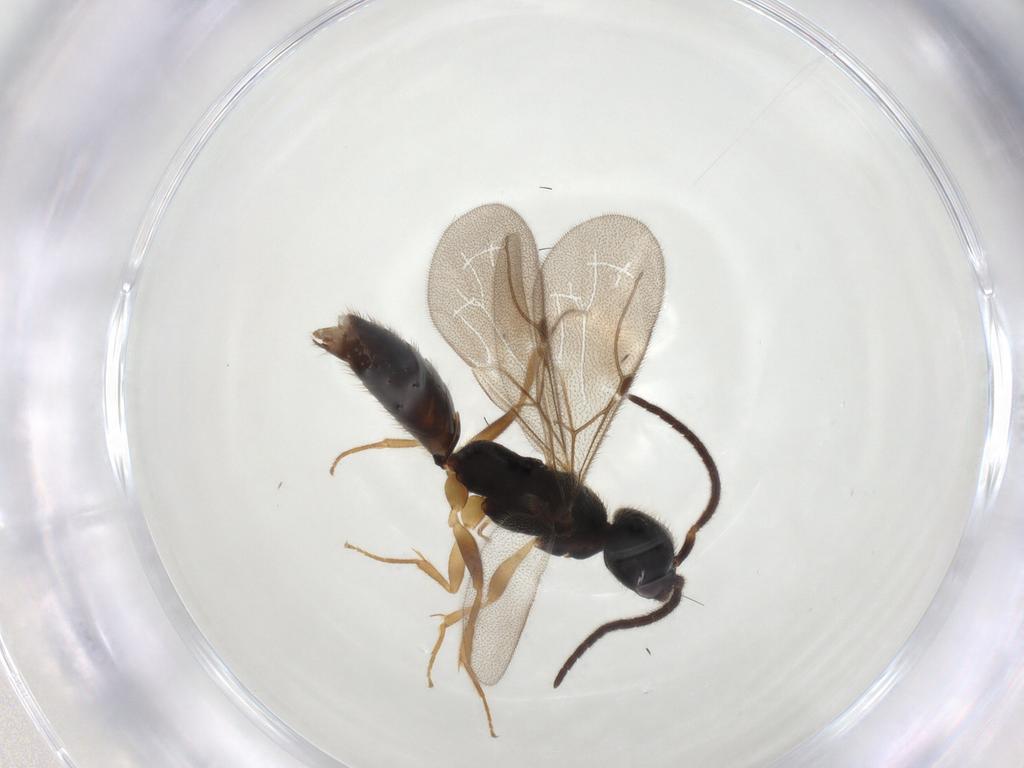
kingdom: Animalia
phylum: Arthropoda
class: Insecta
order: Hymenoptera
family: Bethylidae
